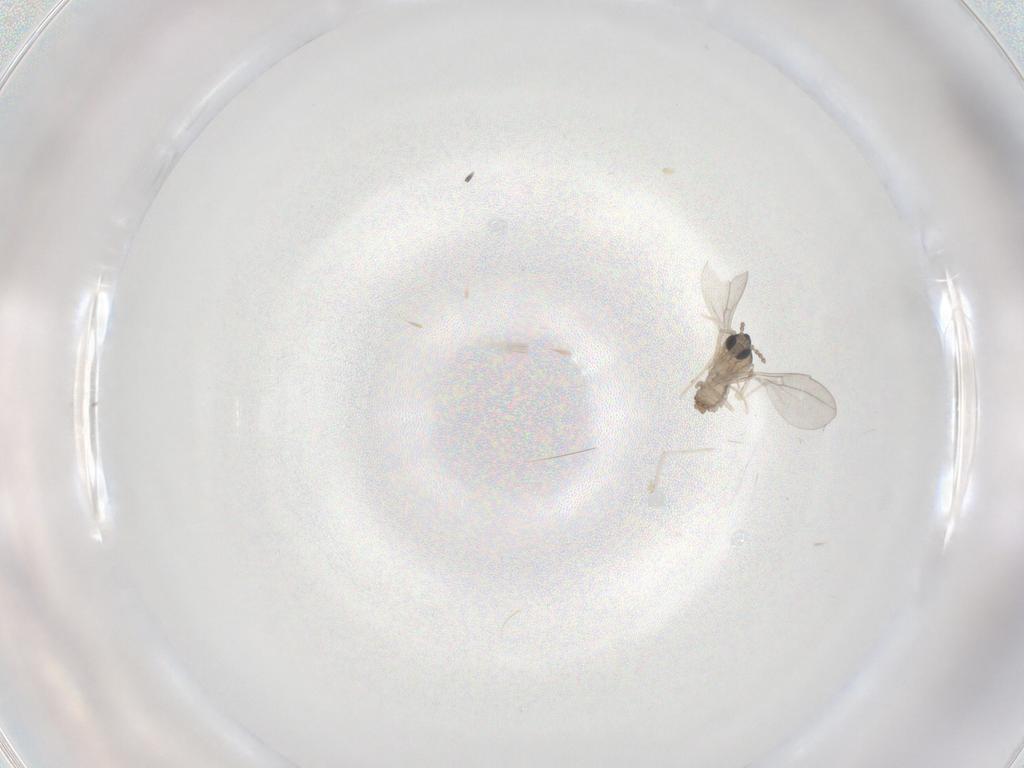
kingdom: Animalia
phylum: Arthropoda
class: Insecta
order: Diptera
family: Cecidomyiidae
